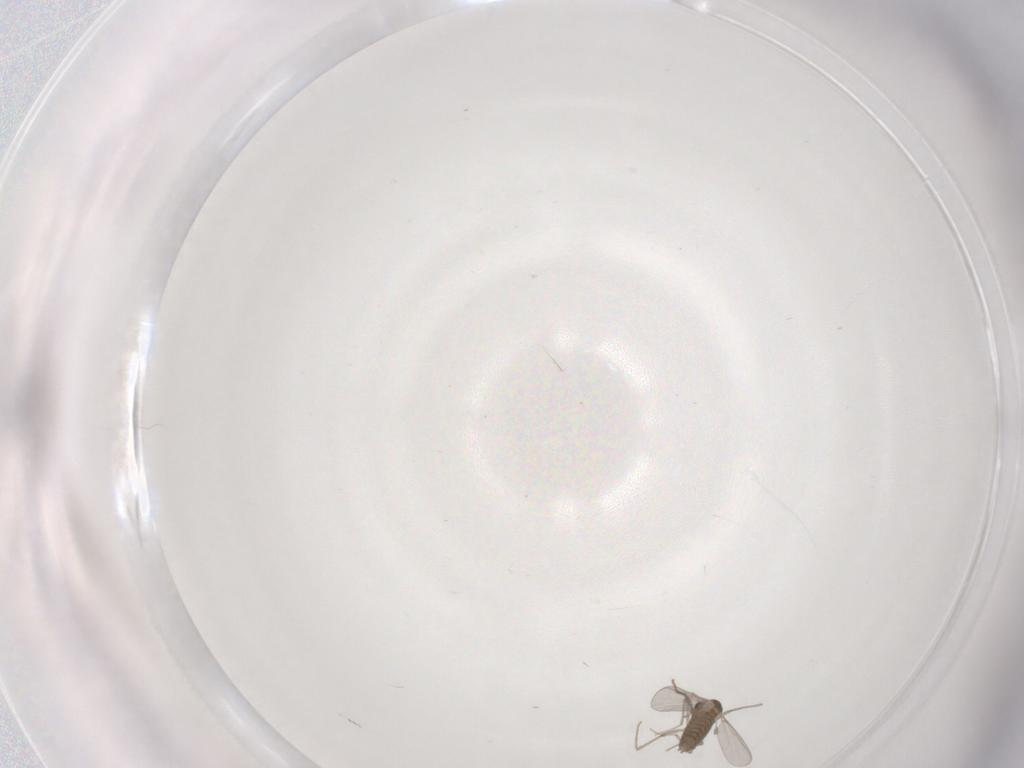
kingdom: Animalia
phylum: Arthropoda
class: Insecta
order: Diptera
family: Chironomidae
